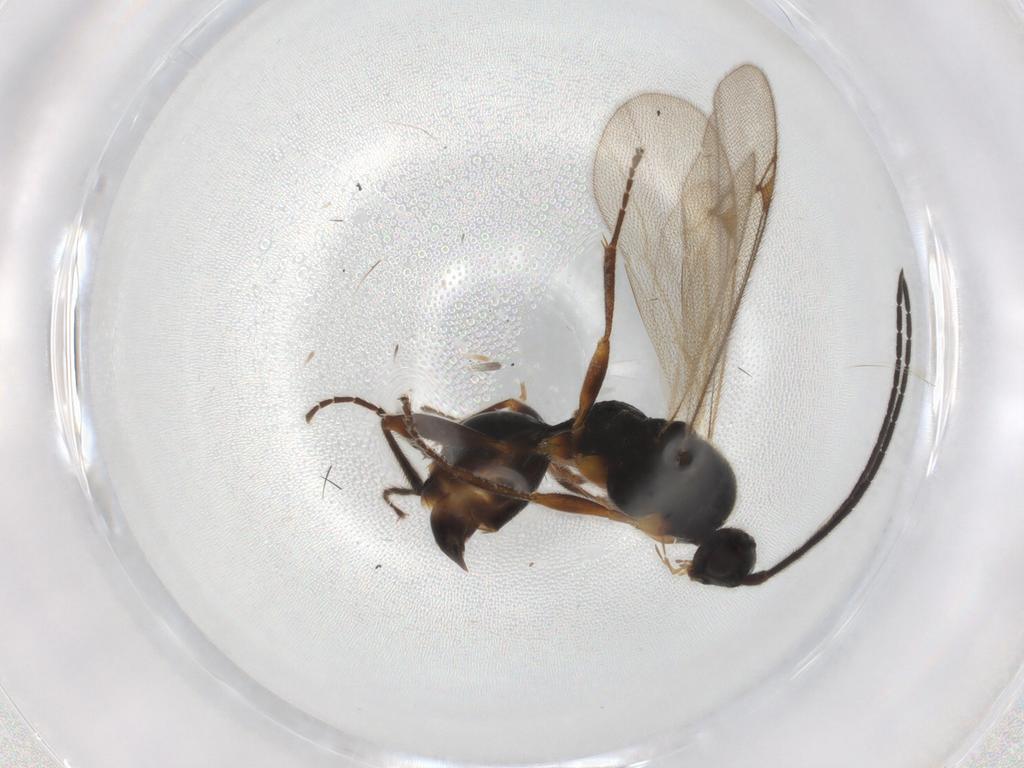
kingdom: Animalia
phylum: Arthropoda
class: Insecta
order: Hymenoptera
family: Proctotrupidae
